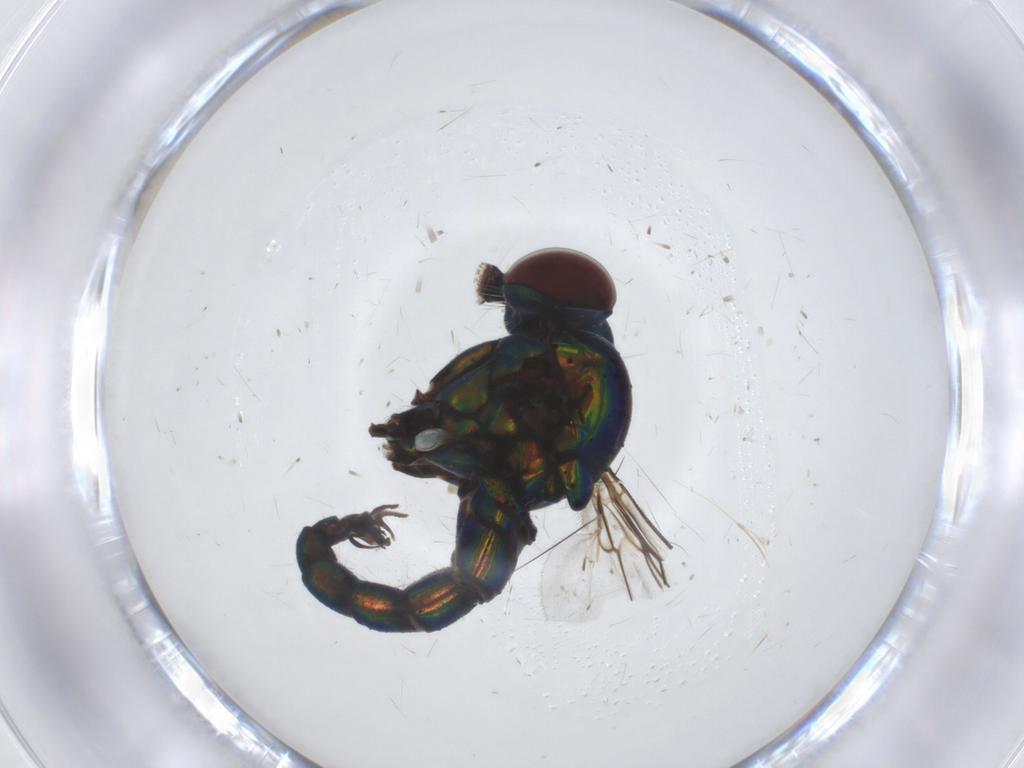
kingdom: Animalia
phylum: Arthropoda
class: Insecta
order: Diptera
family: Dolichopodidae
